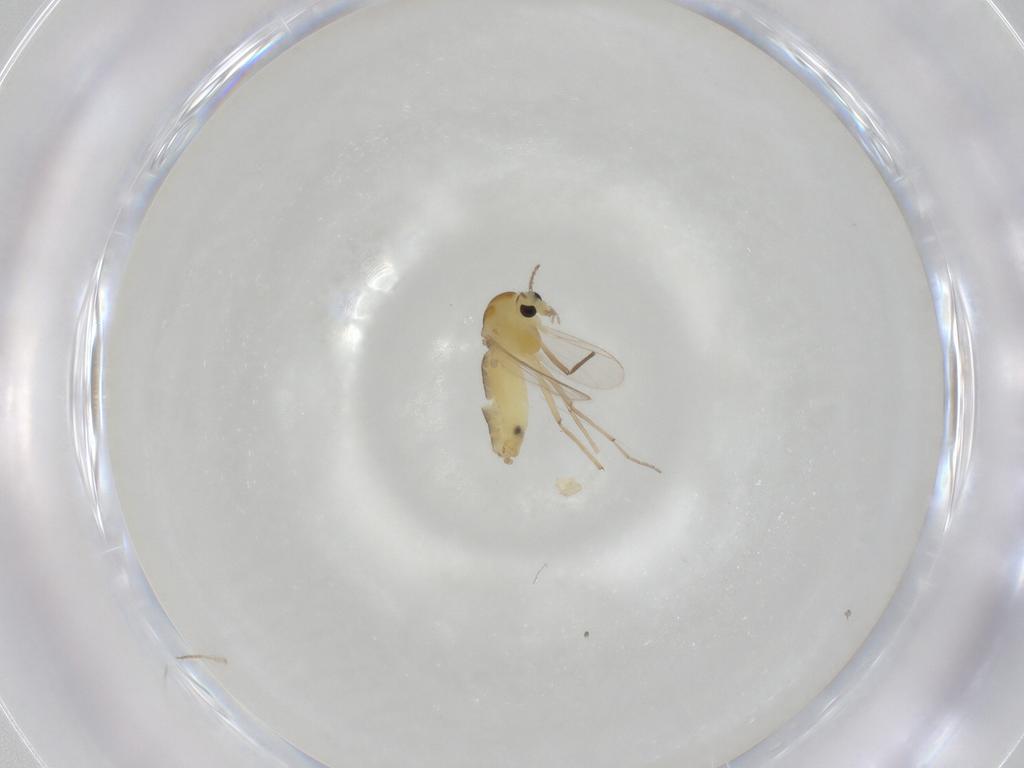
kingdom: Animalia
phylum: Arthropoda
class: Insecta
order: Diptera
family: Chironomidae
